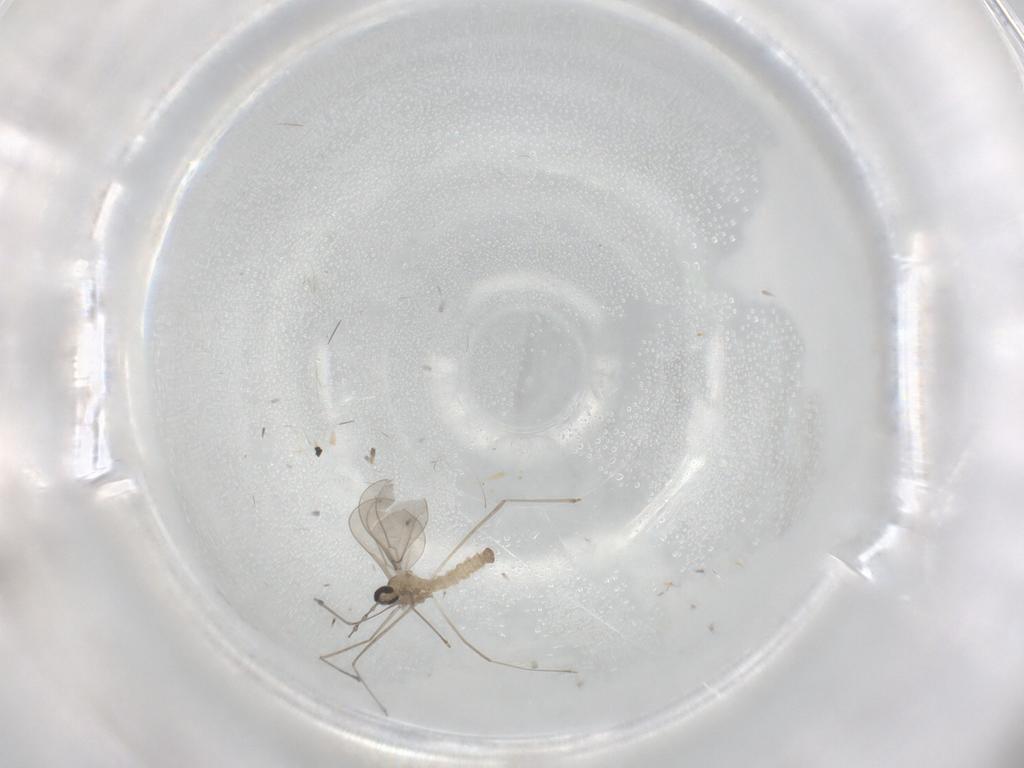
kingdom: Animalia
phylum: Arthropoda
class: Insecta
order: Diptera
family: Cecidomyiidae
